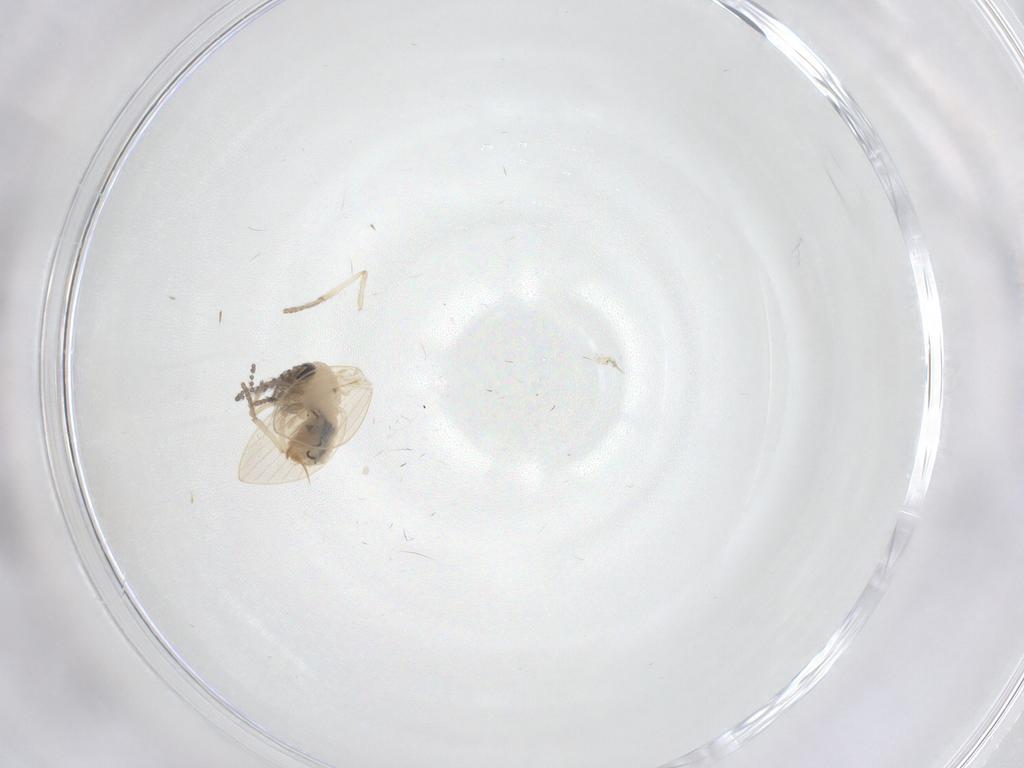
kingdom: Animalia
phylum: Arthropoda
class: Insecta
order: Diptera
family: Psychodidae
